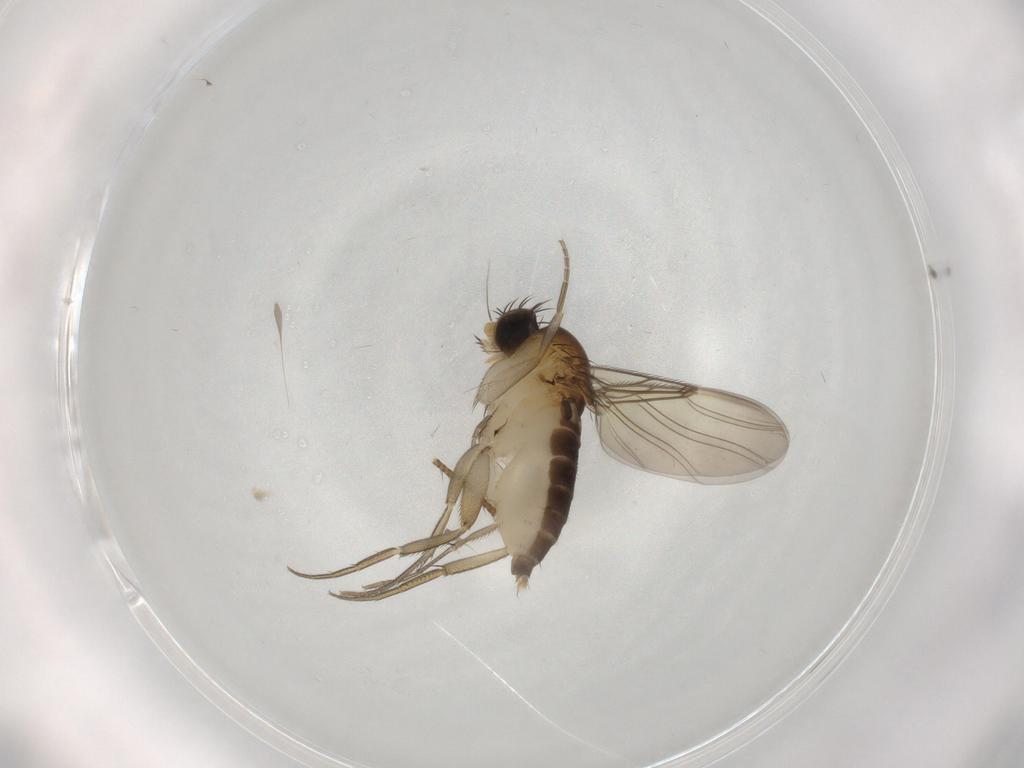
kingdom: Animalia
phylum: Arthropoda
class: Insecta
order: Diptera
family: Phoridae
